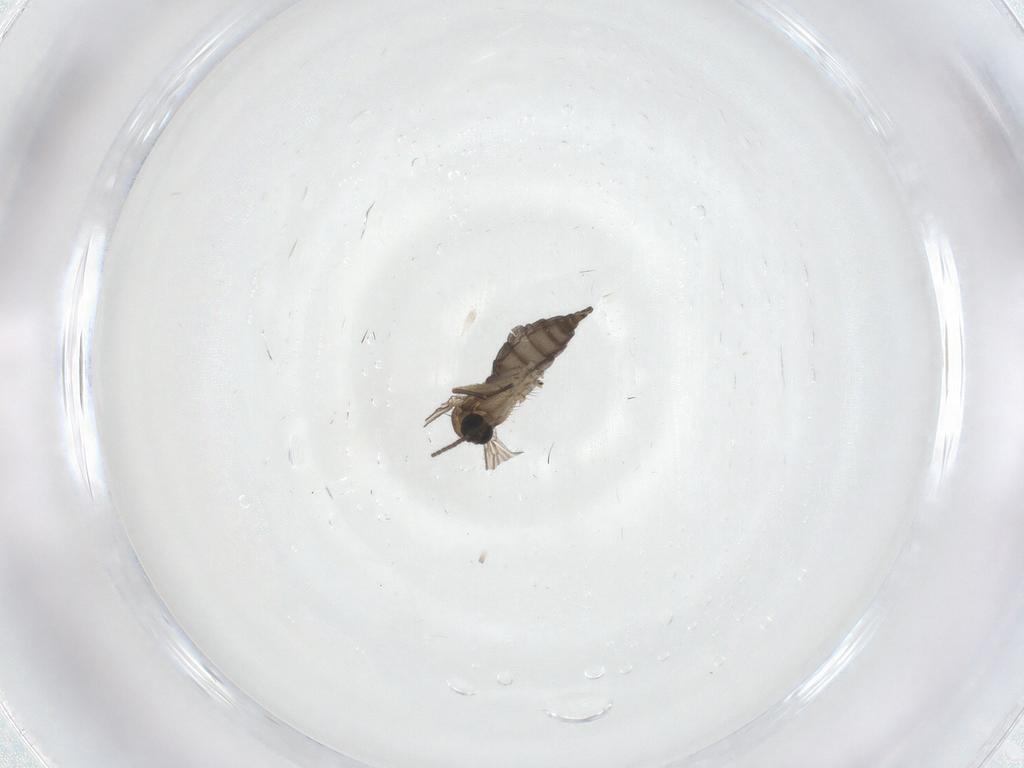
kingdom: Animalia
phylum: Arthropoda
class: Insecta
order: Diptera
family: Sciaridae
